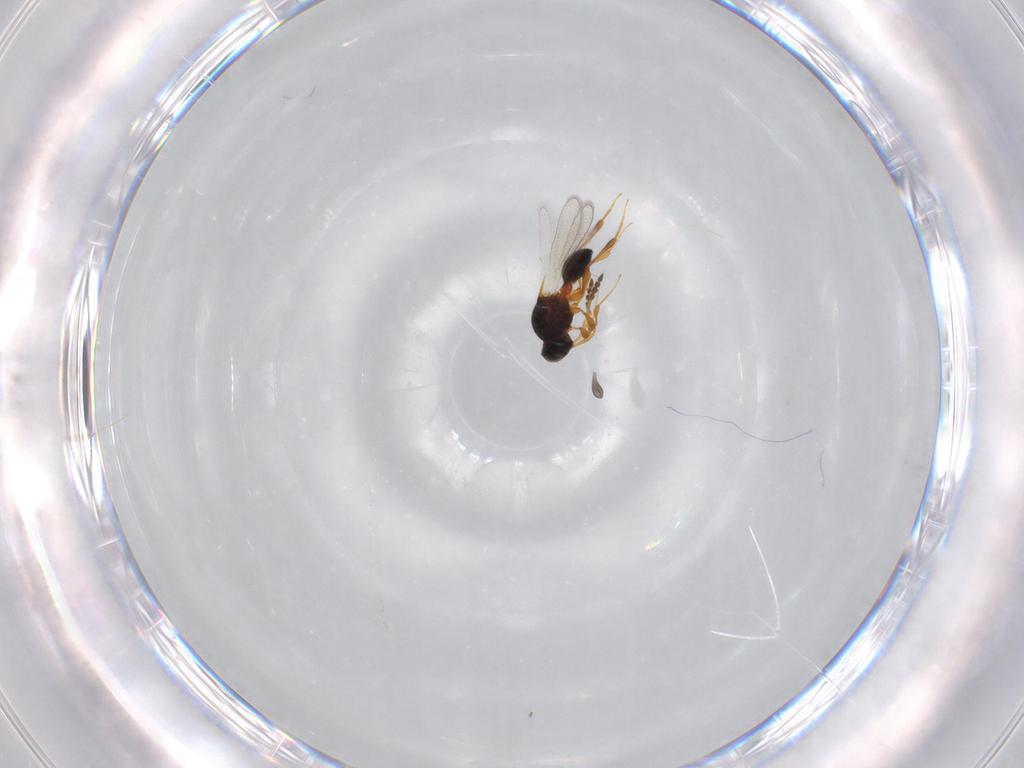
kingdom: Animalia
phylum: Arthropoda
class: Insecta
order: Hymenoptera
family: Platygastridae
